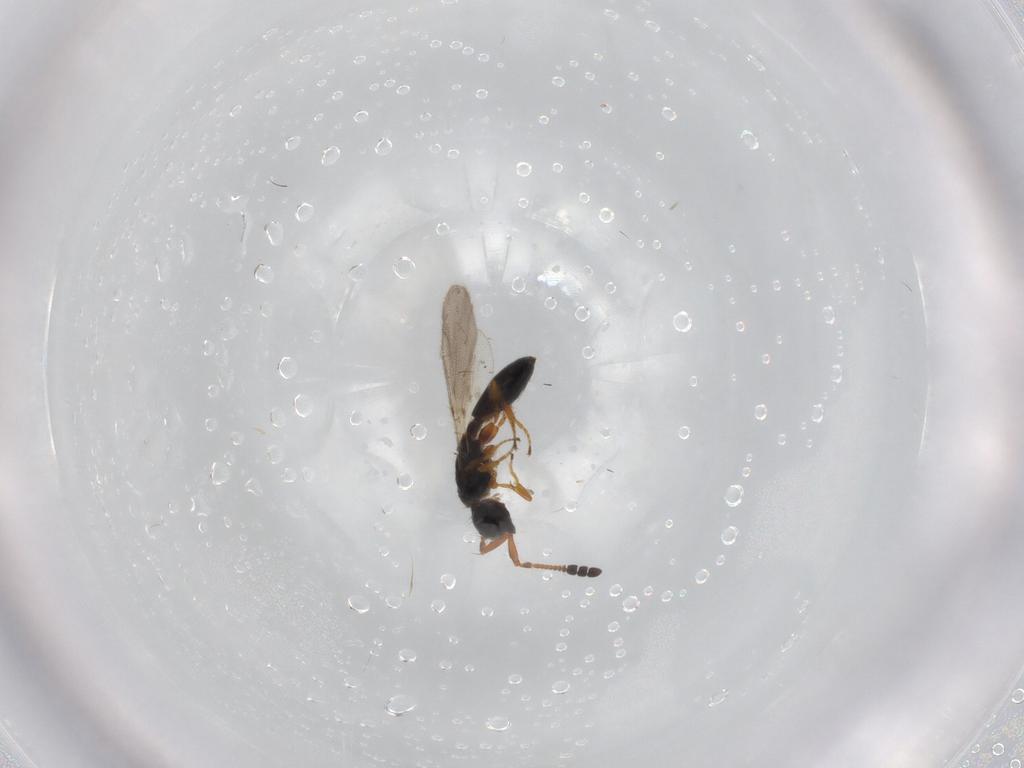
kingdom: Animalia
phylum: Arthropoda
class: Insecta
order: Hymenoptera
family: Diapriidae
